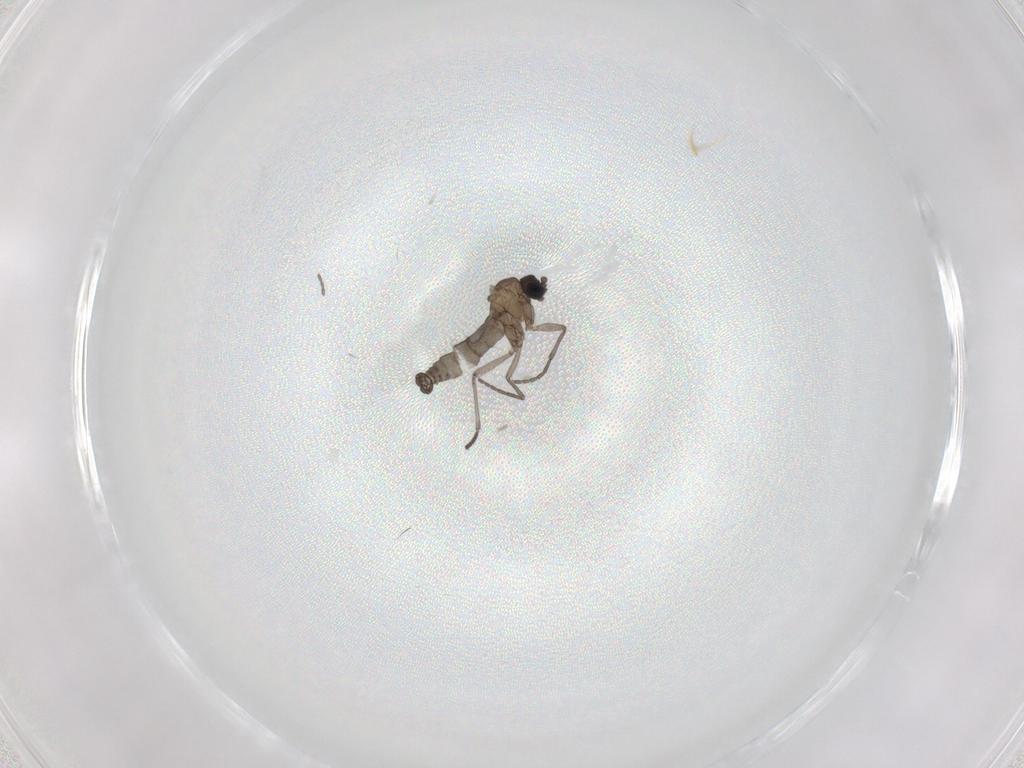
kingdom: Animalia
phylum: Arthropoda
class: Insecta
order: Diptera
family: Sciaridae
